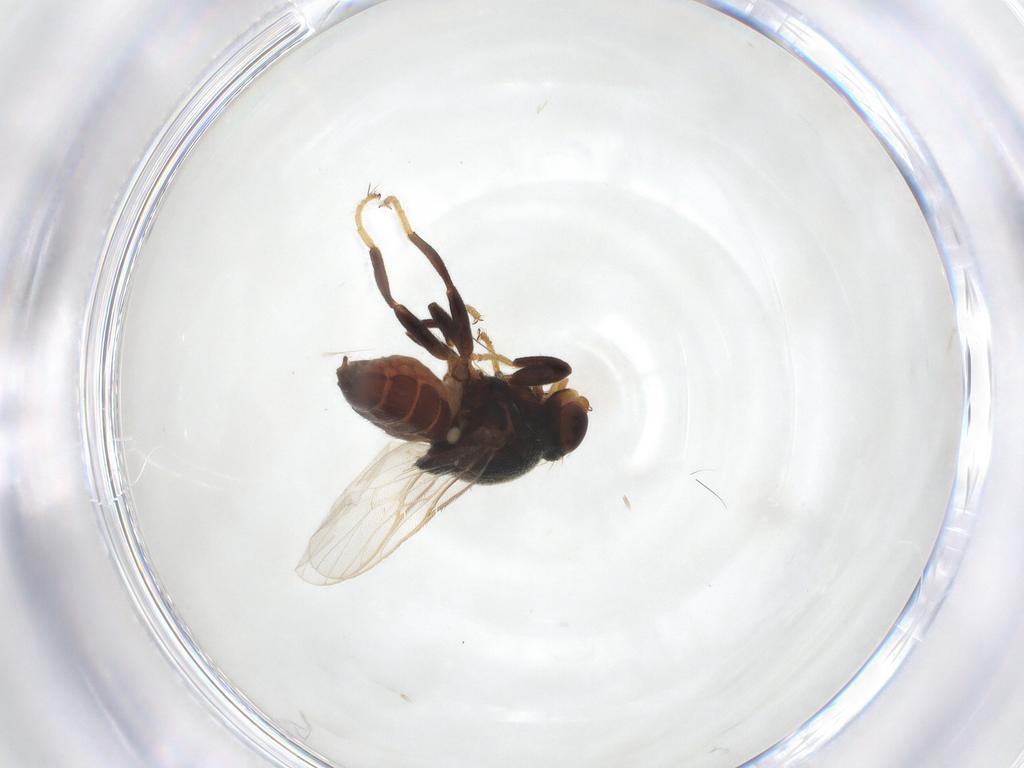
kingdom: Animalia
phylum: Arthropoda
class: Insecta
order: Diptera
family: Chloropidae
